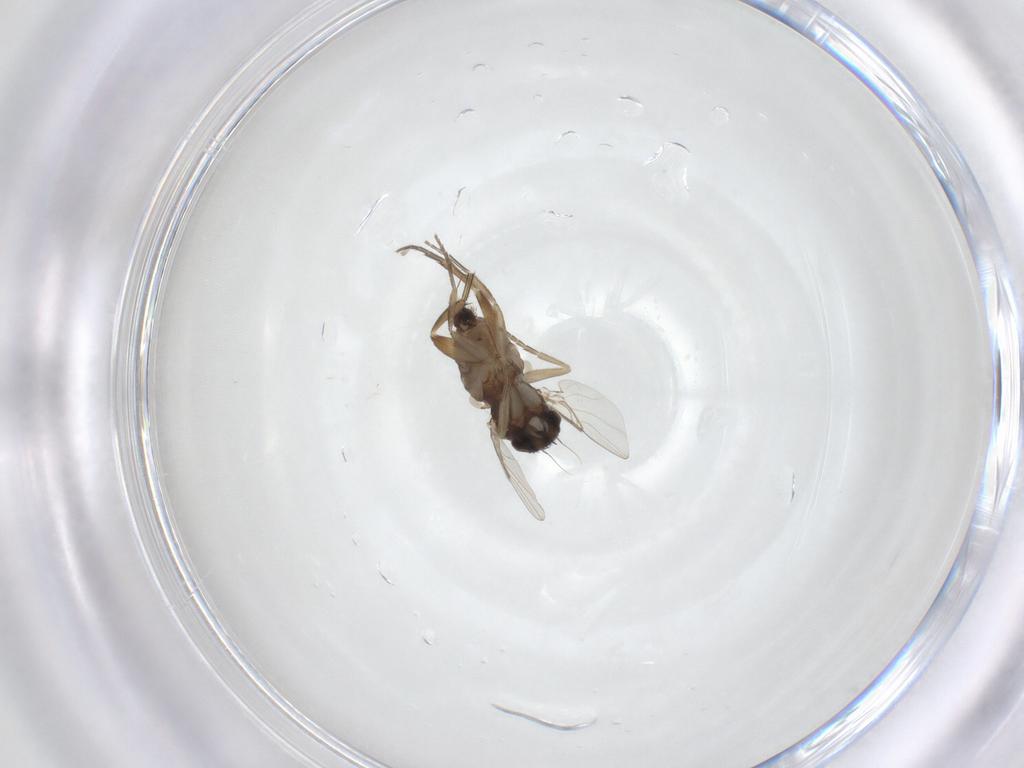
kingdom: Animalia
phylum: Arthropoda
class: Insecta
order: Diptera
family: Phoridae
